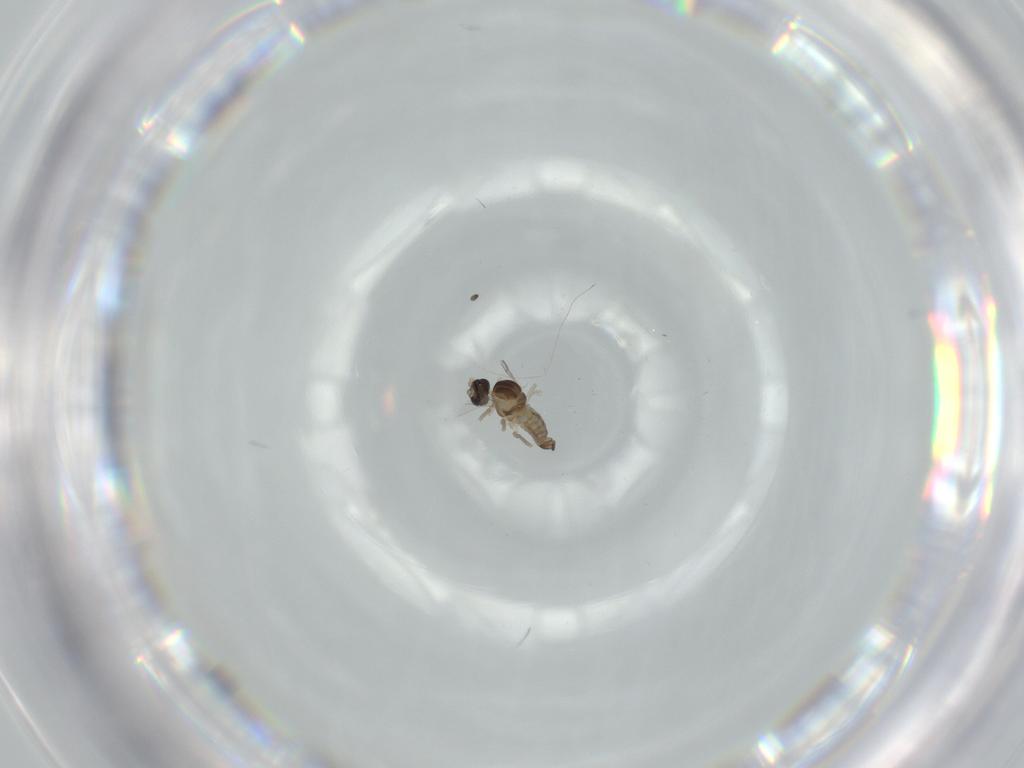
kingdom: Animalia
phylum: Arthropoda
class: Insecta
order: Diptera
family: Cecidomyiidae
